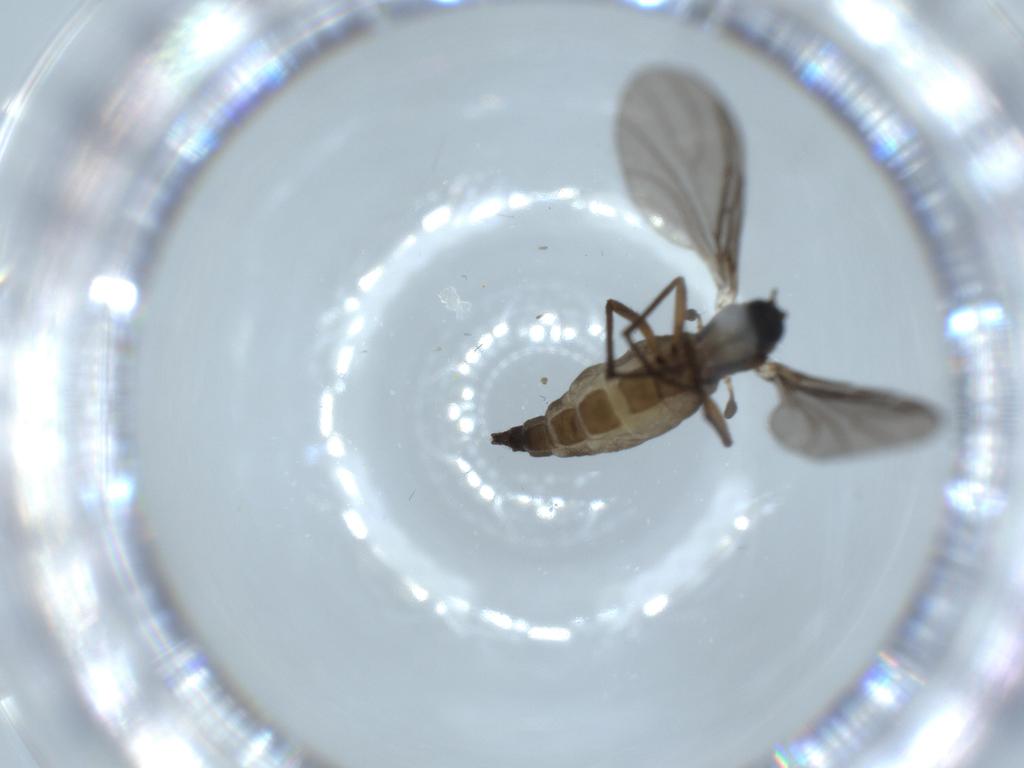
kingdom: Animalia
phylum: Arthropoda
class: Insecta
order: Diptera
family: Sciaridae
